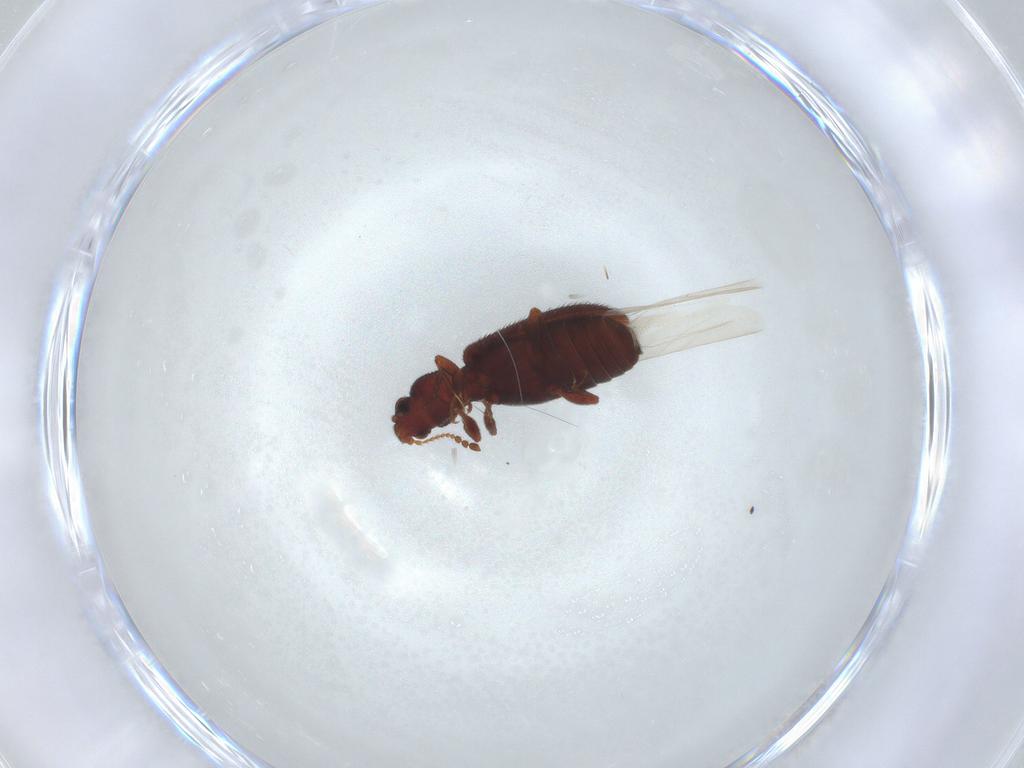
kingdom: Animalia
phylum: Arthropoda
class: Insecta
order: Coleoptera
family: Latridiidae
